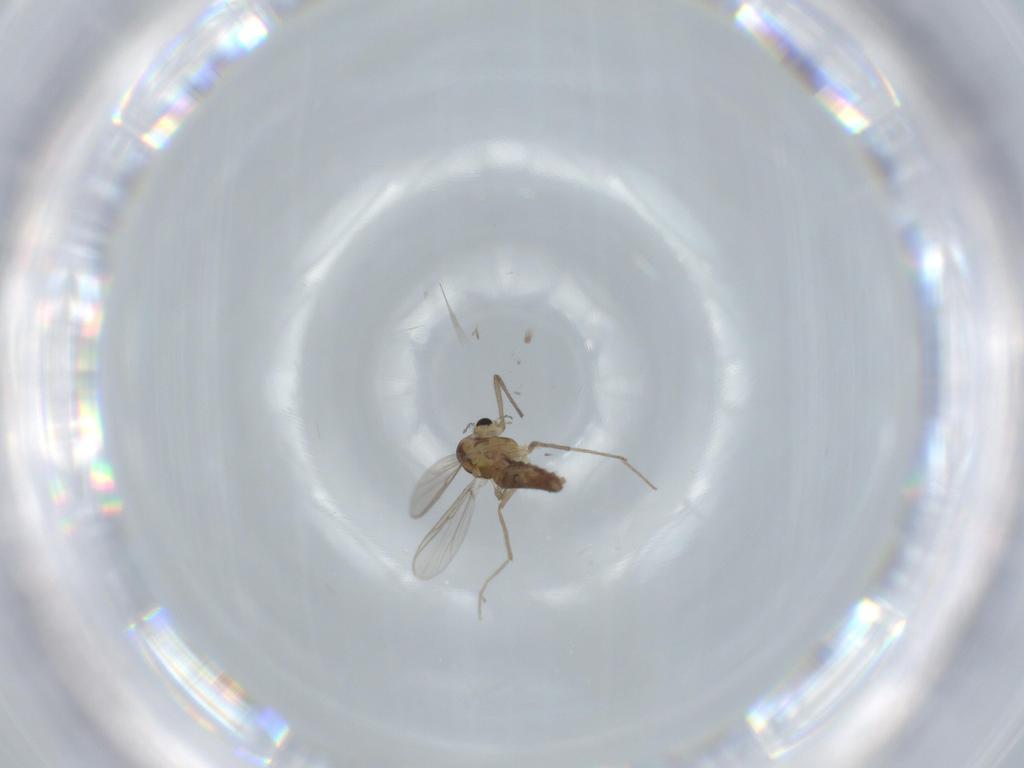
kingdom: Animalia
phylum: Arthropoda
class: Insecta
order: Diptera
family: Chironomidae
